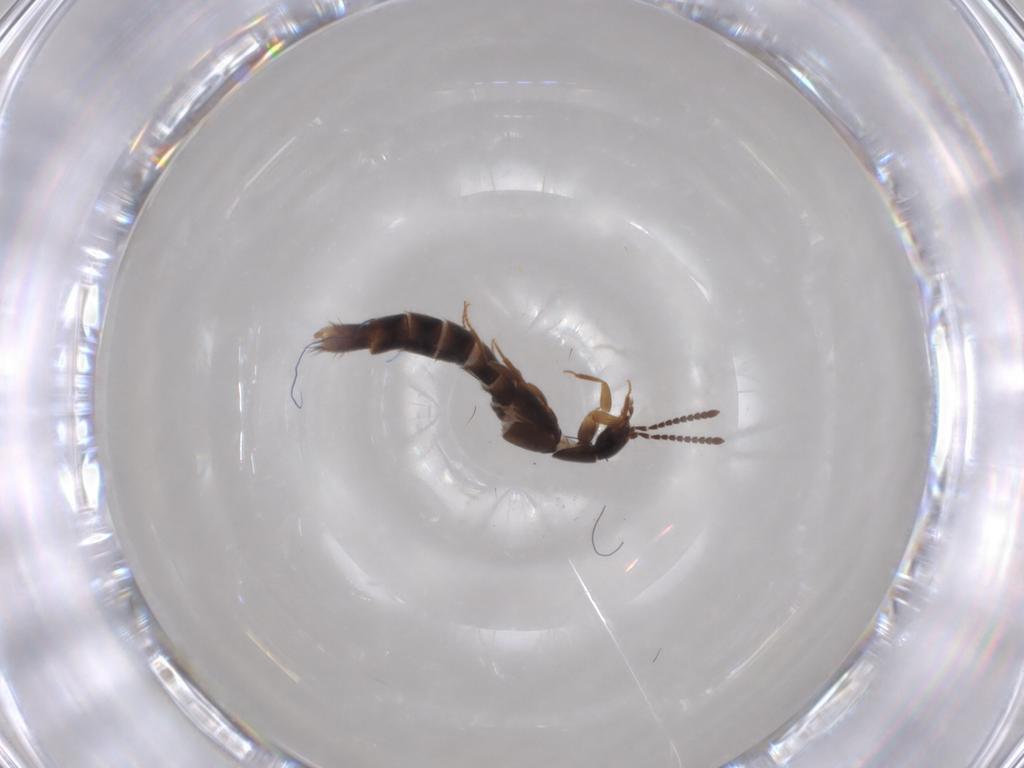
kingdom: Animalia
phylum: Arthropoda
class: Insecta
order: Coleoptera
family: Staphylinidae
